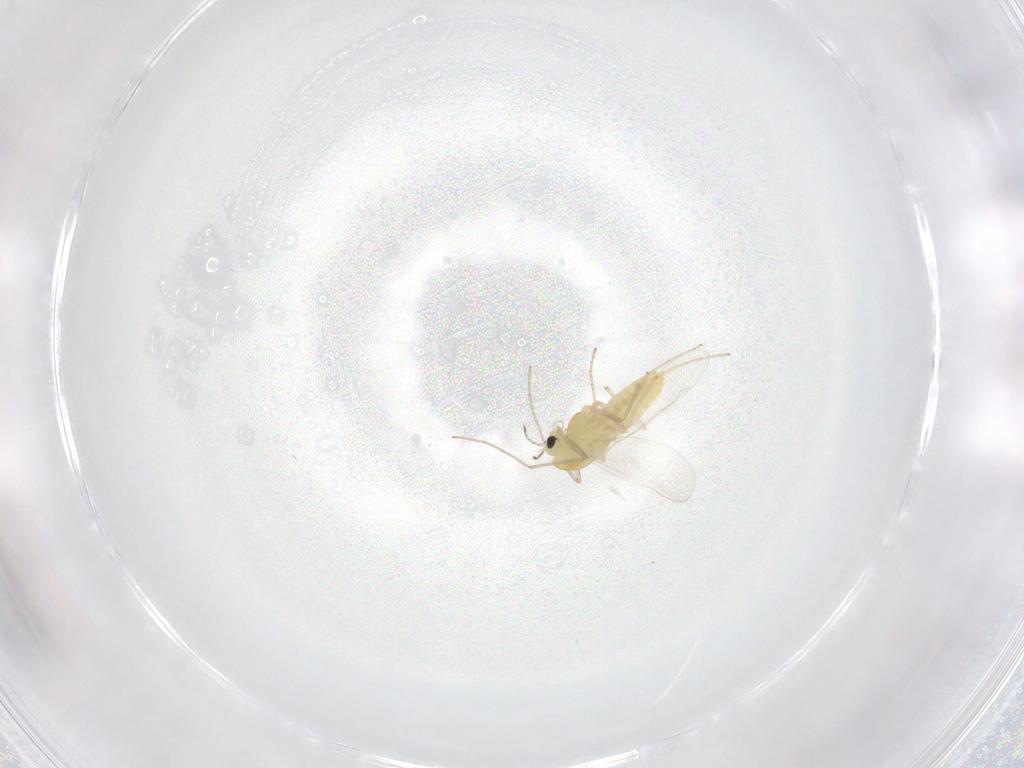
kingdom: Animalia
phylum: Arthropoda
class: Insecta
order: Diptera
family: Chironomidae
